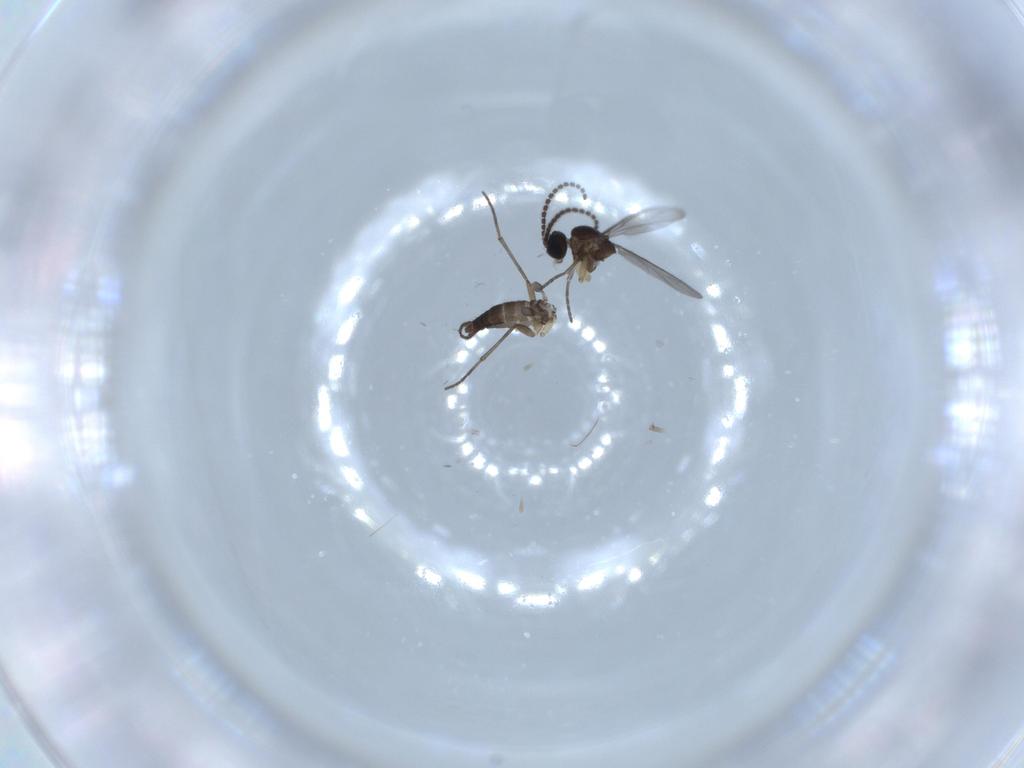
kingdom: Animalia
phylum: Arthropoda
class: Insecta
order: Diptera
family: Sciaridae
